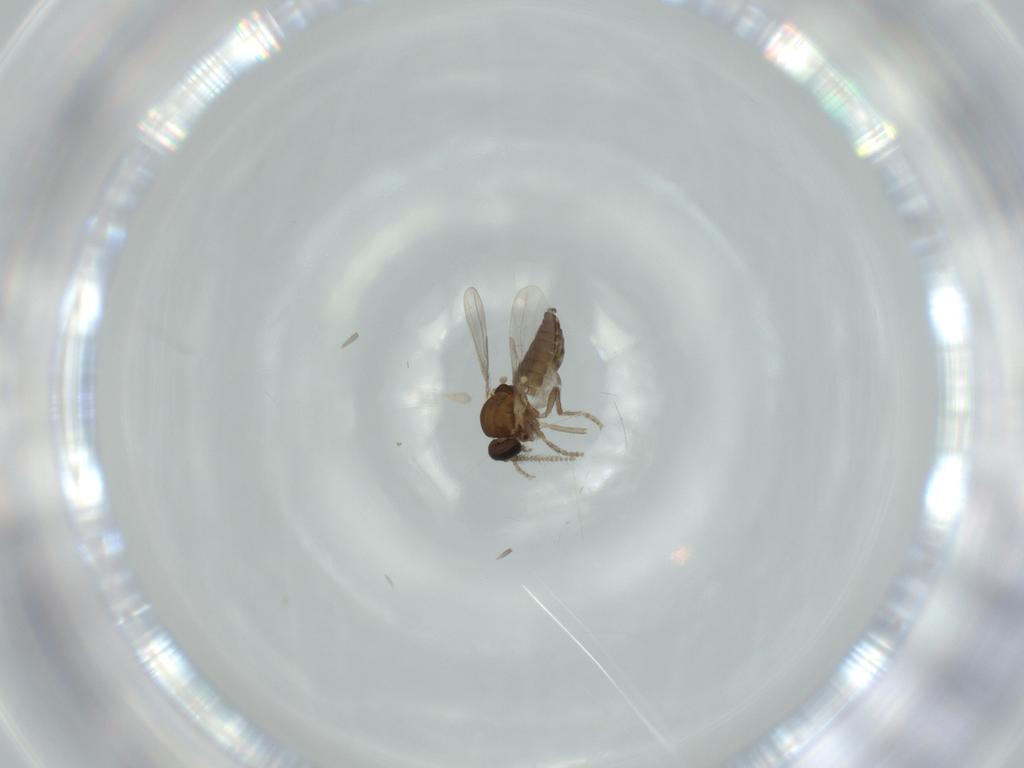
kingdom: Animalia
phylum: Arthropoda
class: Insecta
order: Diptera
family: Ceratopogonidae
